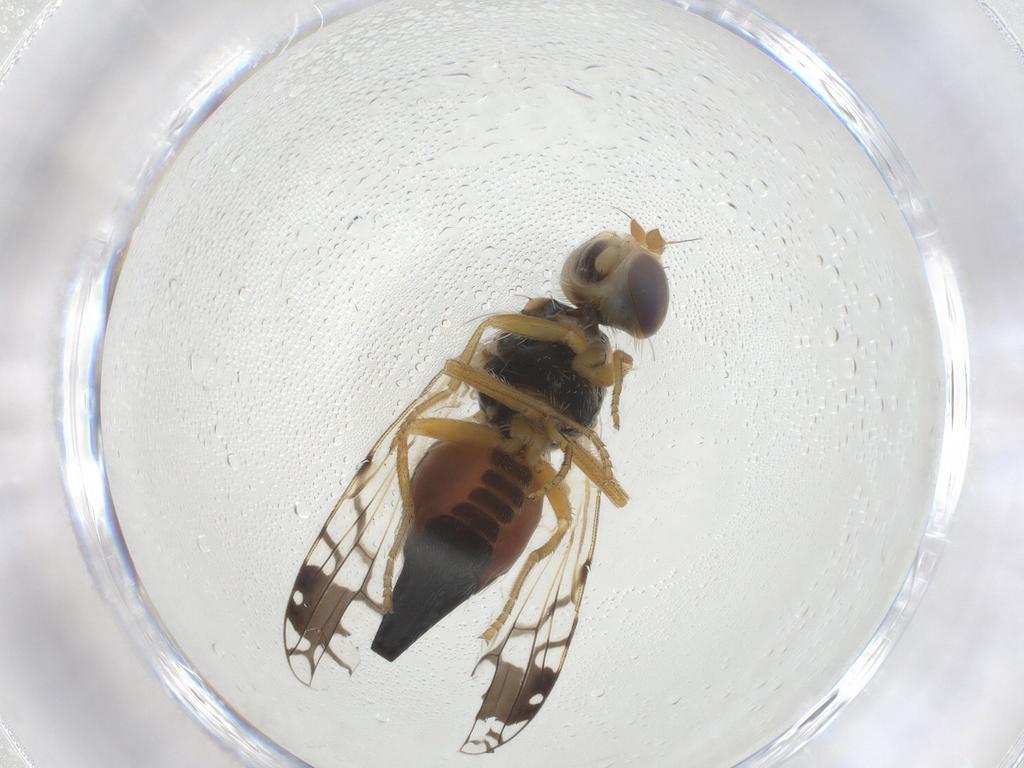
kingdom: Animalia
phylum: Arthropoda
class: Insecta
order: Diptera
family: Tephritidae
